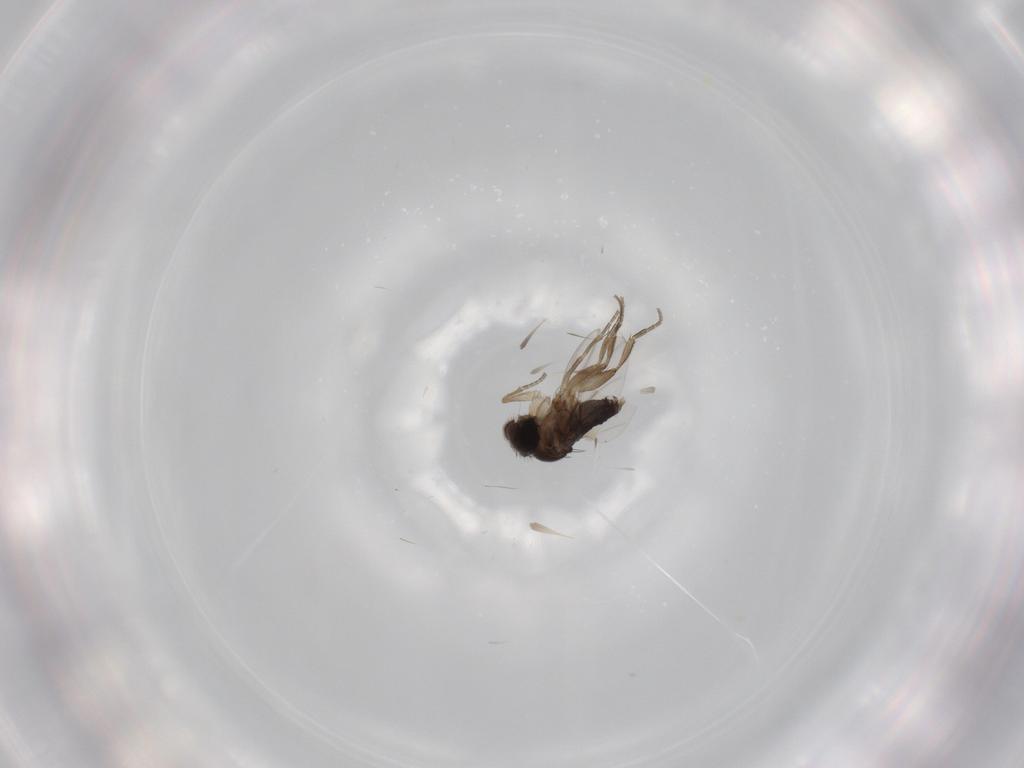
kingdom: Animalia
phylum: Arthropoda
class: Insecta
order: Diptera
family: Phoridae
